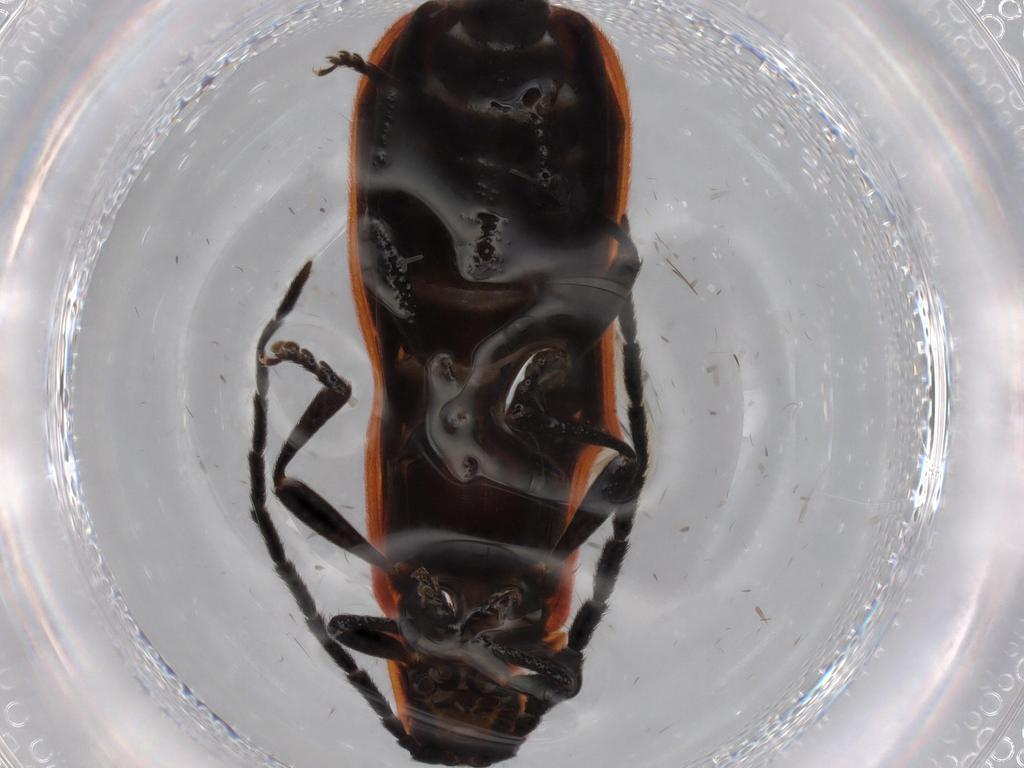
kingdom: Animalia
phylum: Arthropoda
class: Insecta
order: Coleoptera
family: Lycidae
